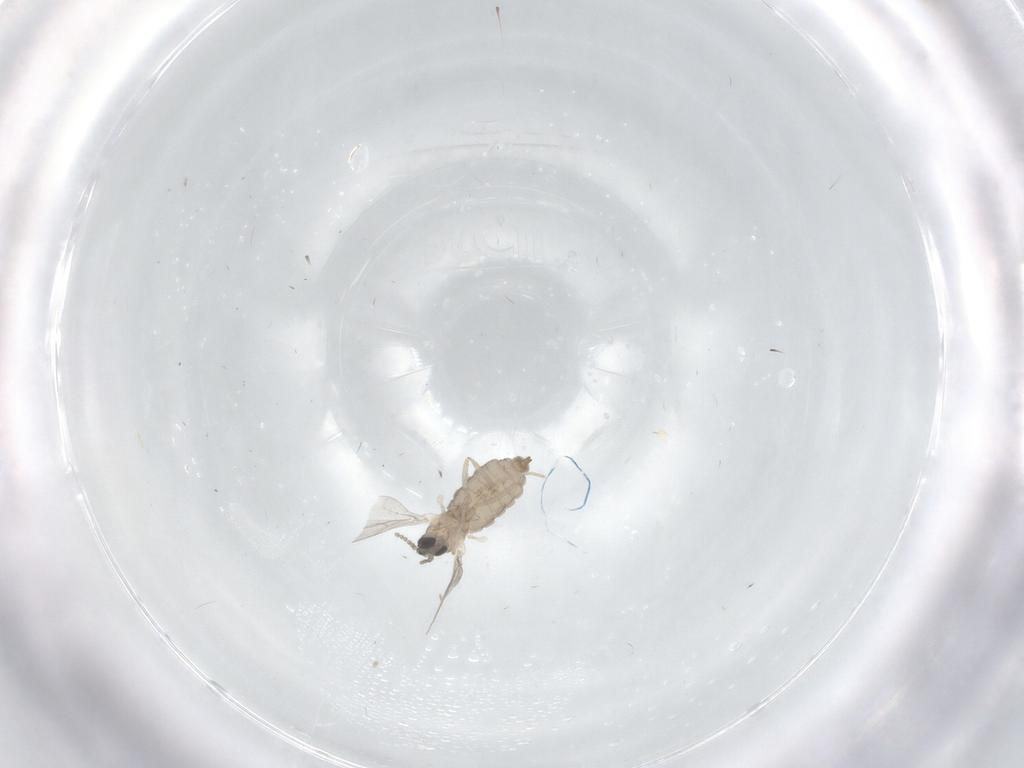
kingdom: Animalia
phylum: Arthropoda
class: Insecta
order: Diptera
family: Cecidomyiidae
